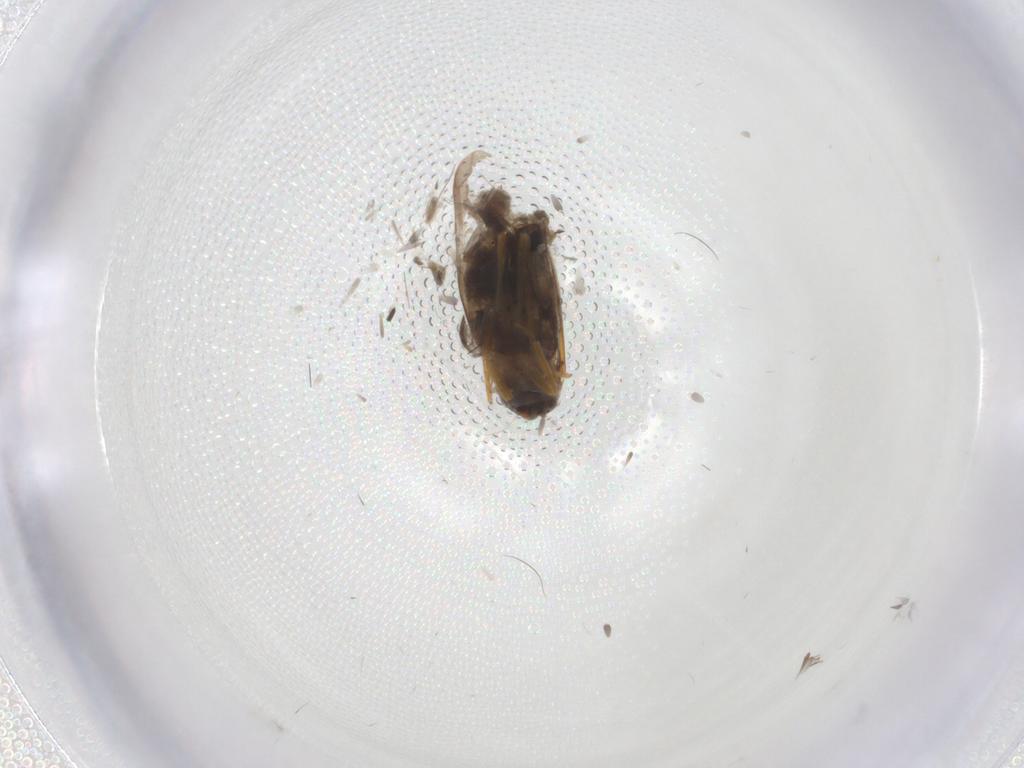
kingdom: Animalia
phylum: Arthropoda
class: Insecta
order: Hemiptera
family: Cicadellidae
